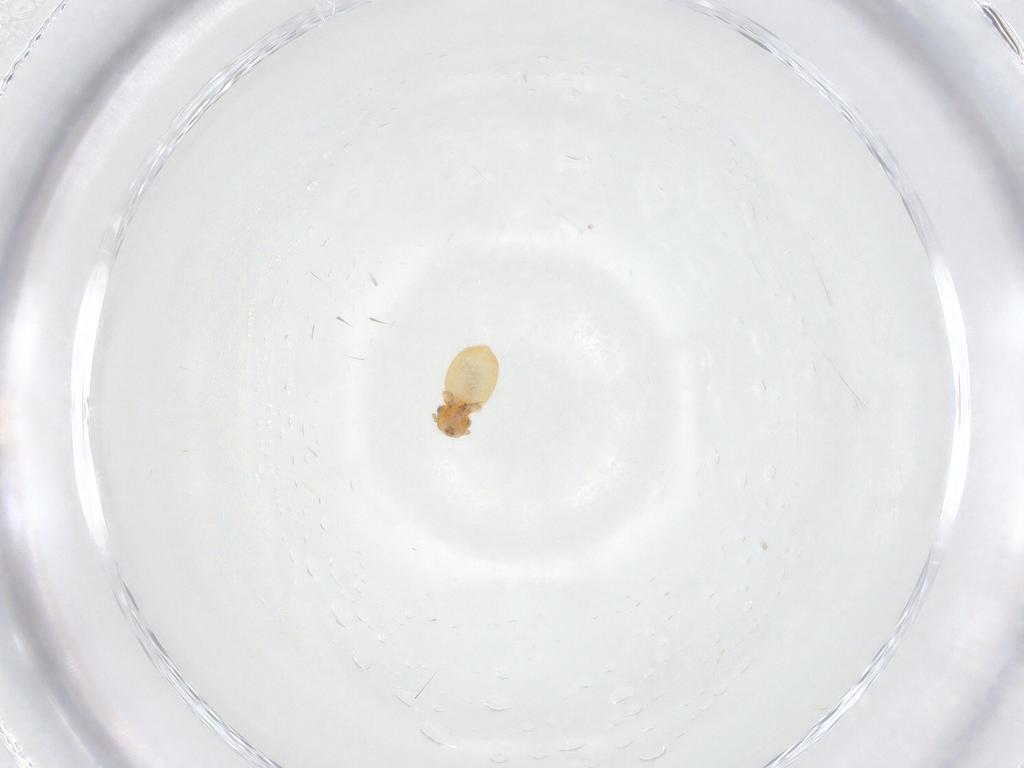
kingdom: Animalia
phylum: Arthropoda
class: Insecta
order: Psocodea
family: Ectopsocidae
